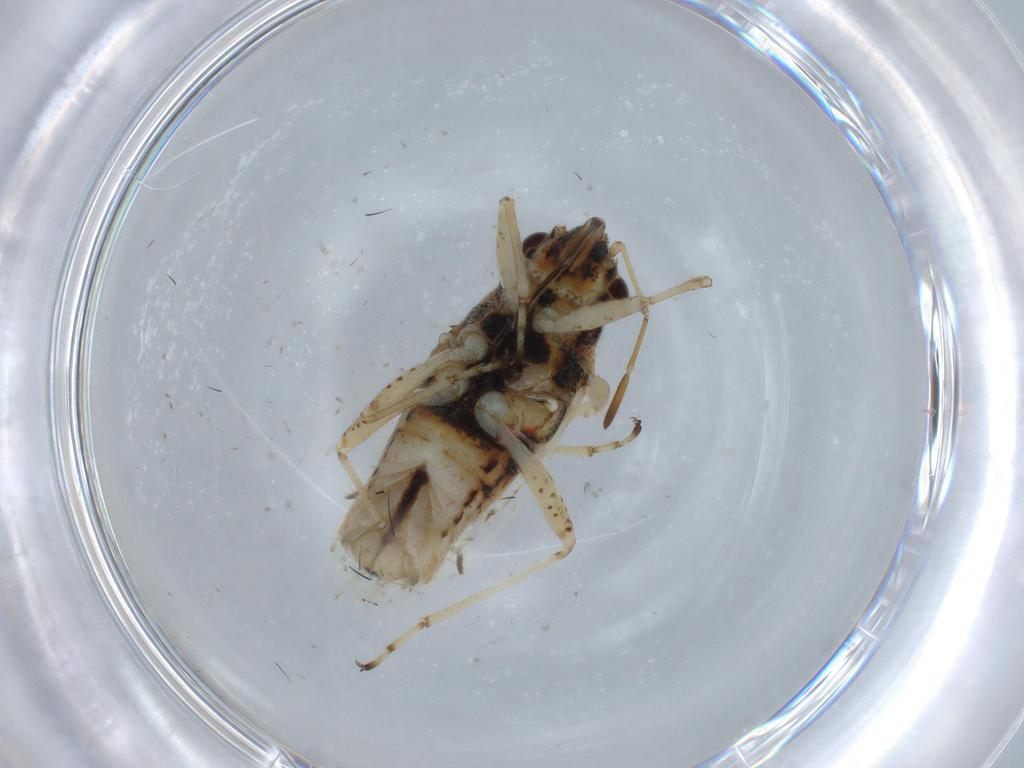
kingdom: Animalia
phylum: Arthropoda
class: Insecta
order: Hemiptera
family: Lygaeidae
